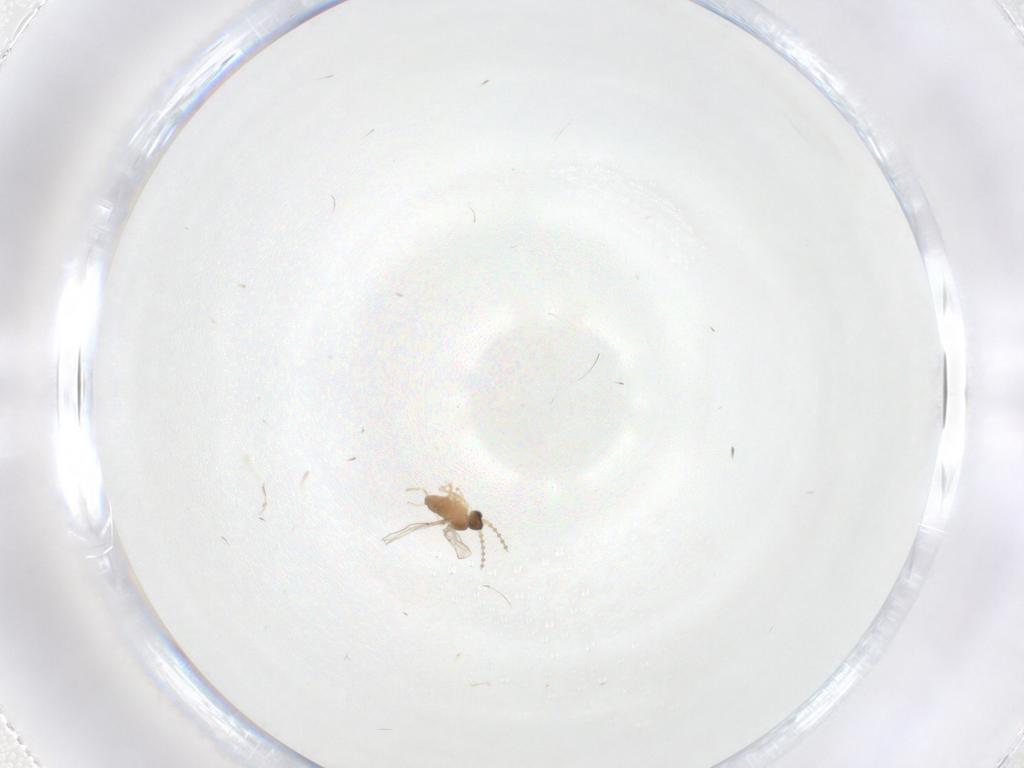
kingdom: Animalia
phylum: Arthropoda
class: Insecta
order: Diptera
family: Cecidomyiidae
